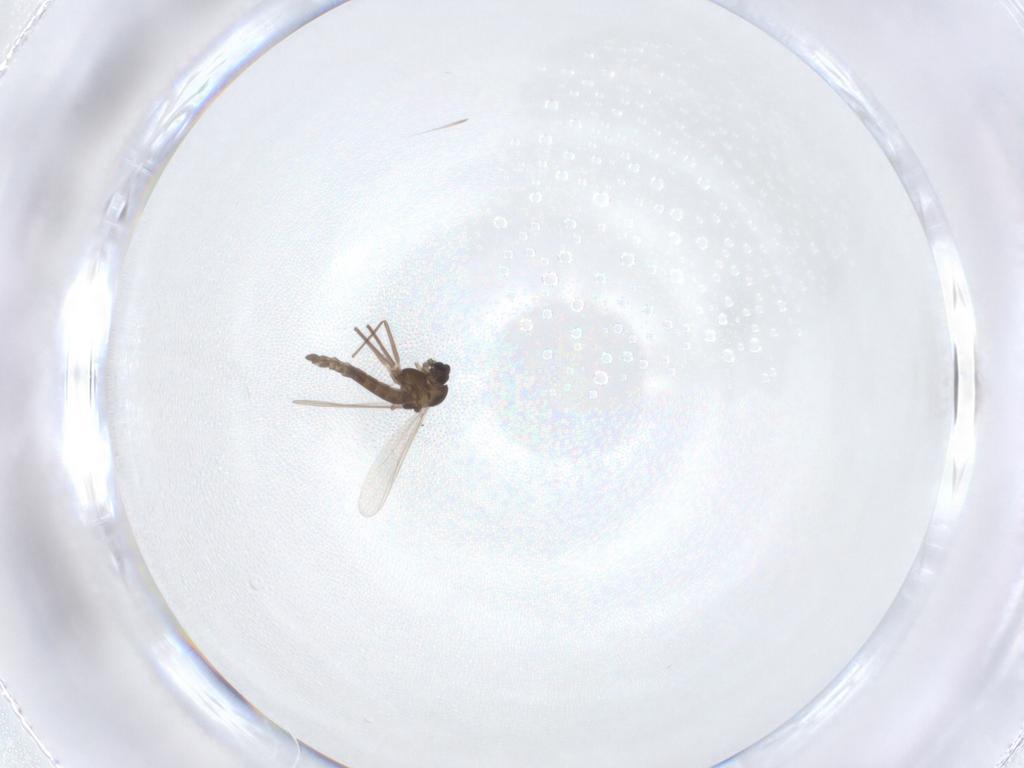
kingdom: Animalia
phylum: Arthropoda
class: Insecta
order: Diptera
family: Chironomidae
